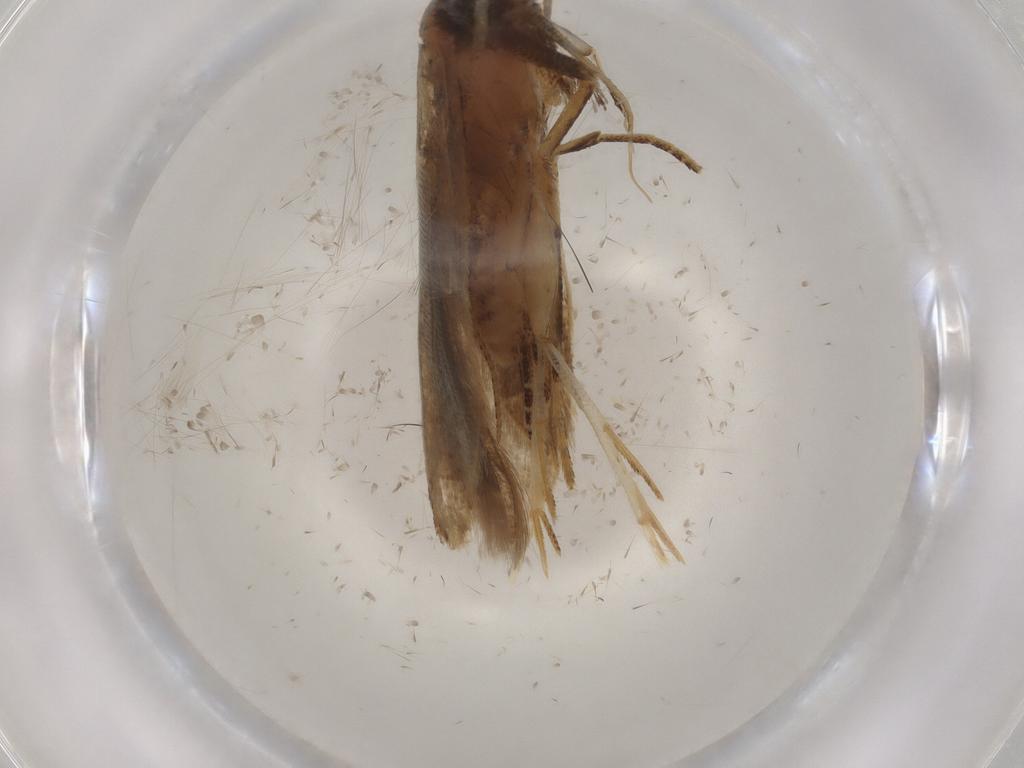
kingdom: Animalia
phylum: Arthropoda
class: Insecta
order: Lepidoptera
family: Gelechiidae
